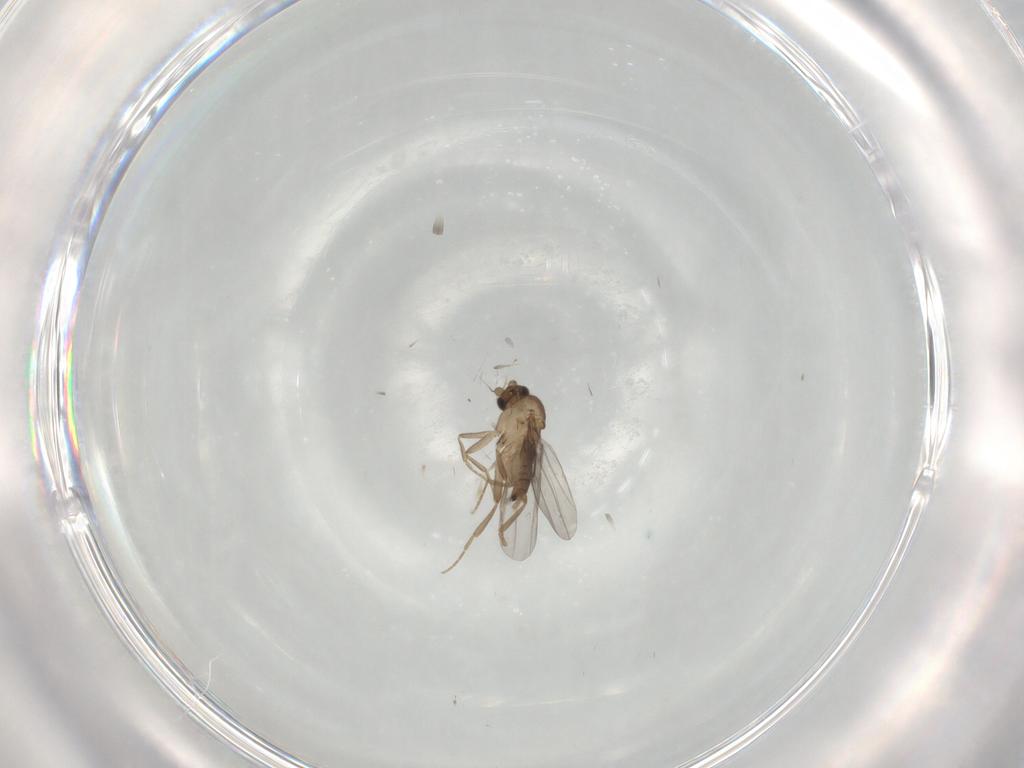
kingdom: Animalia
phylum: Arthropoda
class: Insecta
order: Diptera
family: Cecidomyiidae
